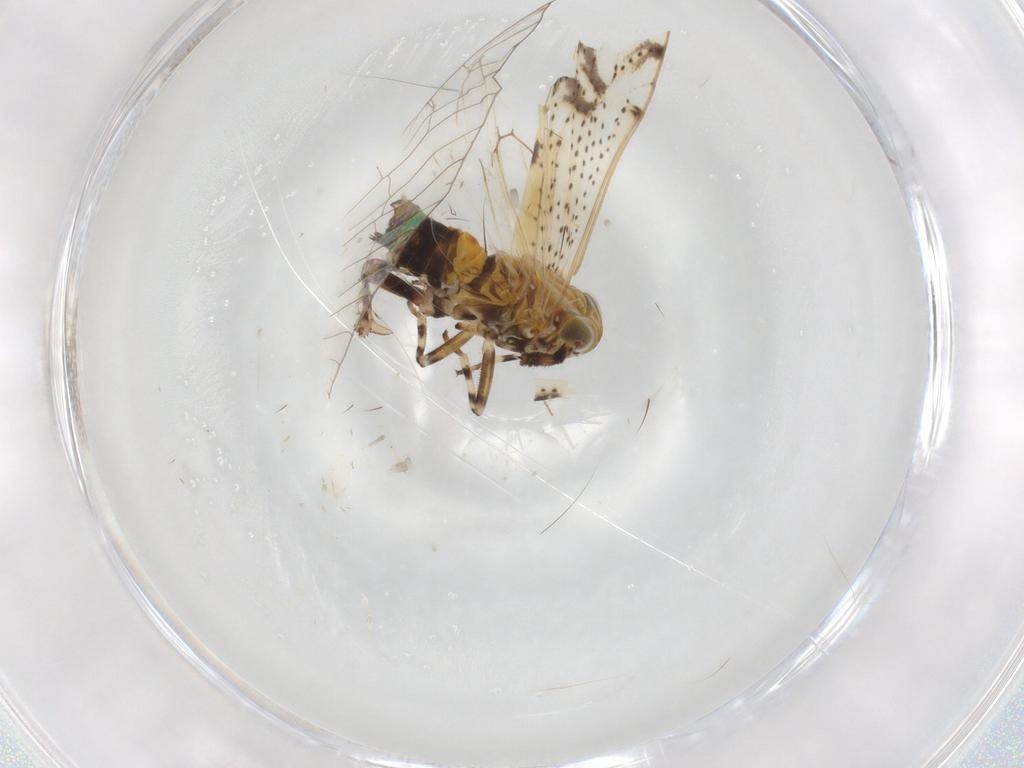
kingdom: Animalia
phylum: Arthropoda
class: Insecta
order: Hemiptera
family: Delphacidae
